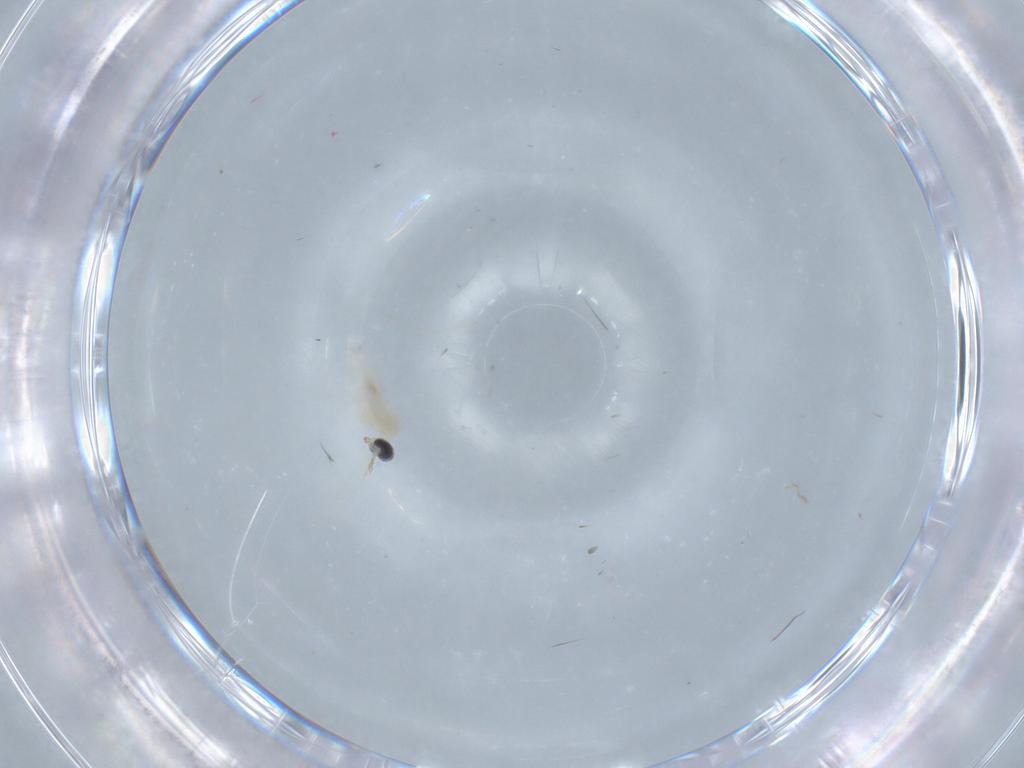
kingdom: Animalia
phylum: Arthropoda
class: Insecta
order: Diptera
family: Cecidomyiidae
